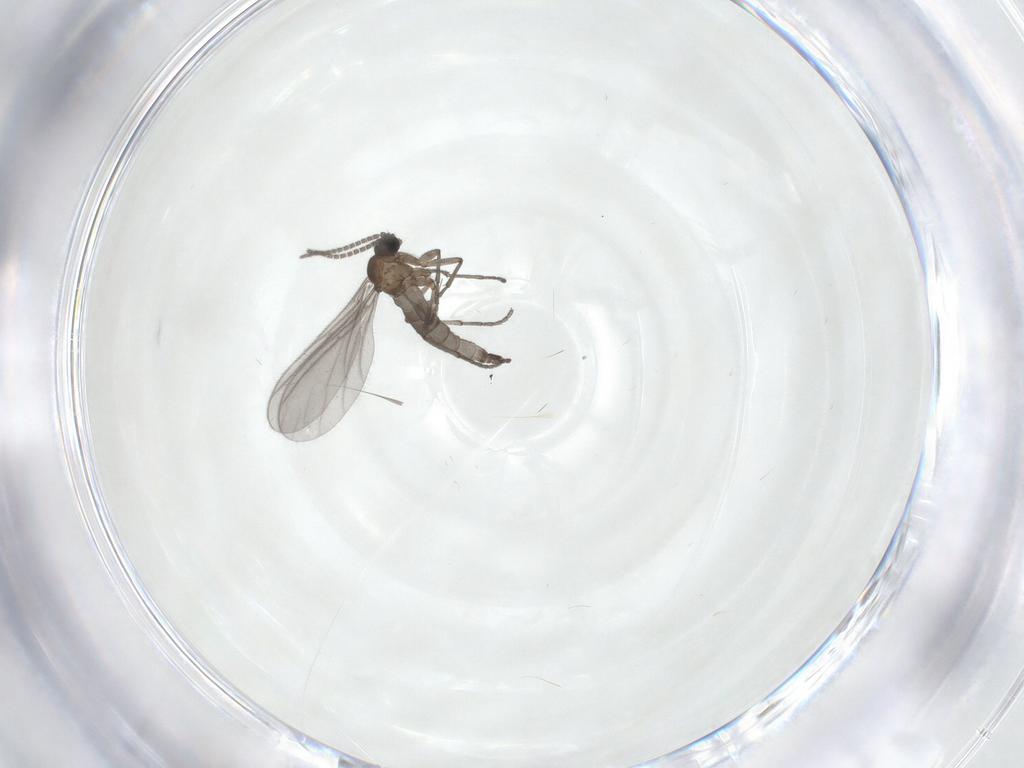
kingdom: Animalia
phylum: Arthropoda
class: Insecta
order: Diptera
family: Sciaridae
